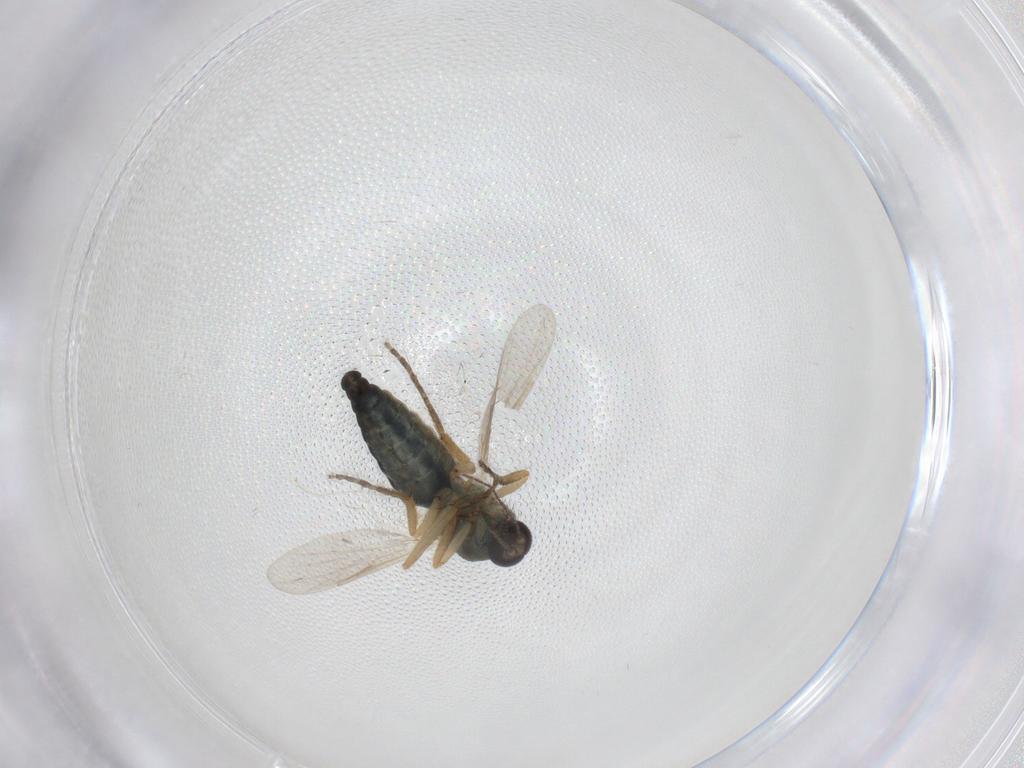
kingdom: Animalia
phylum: Arthropoda
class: Insecta
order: Diptera
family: Ceratopogonidae
